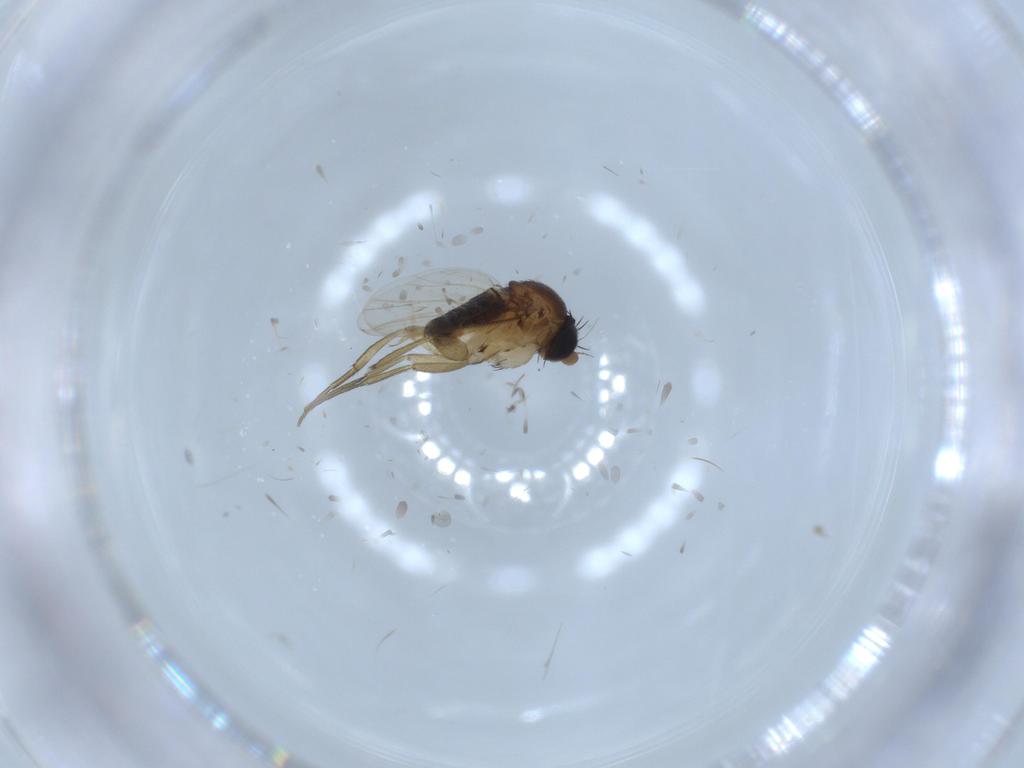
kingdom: Animalia
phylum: Arthropoda
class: Insecta
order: Diptera
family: Phoridae
